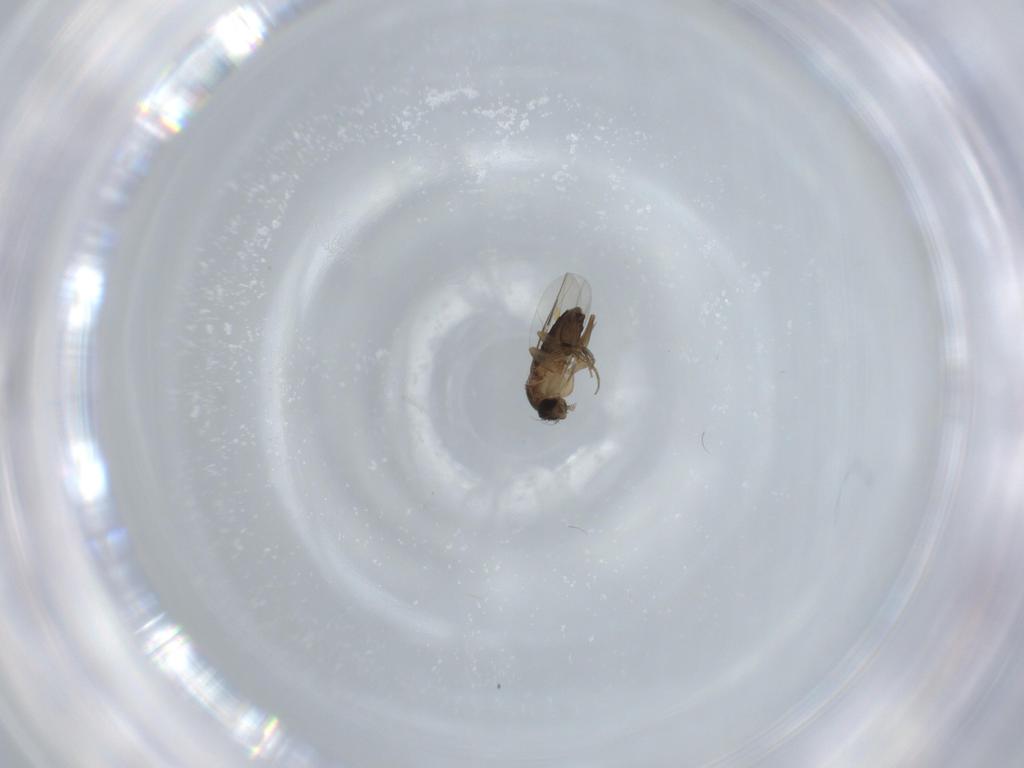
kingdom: Animalia
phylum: Arthropoda
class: Insecta
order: Diptera
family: Phoridae
